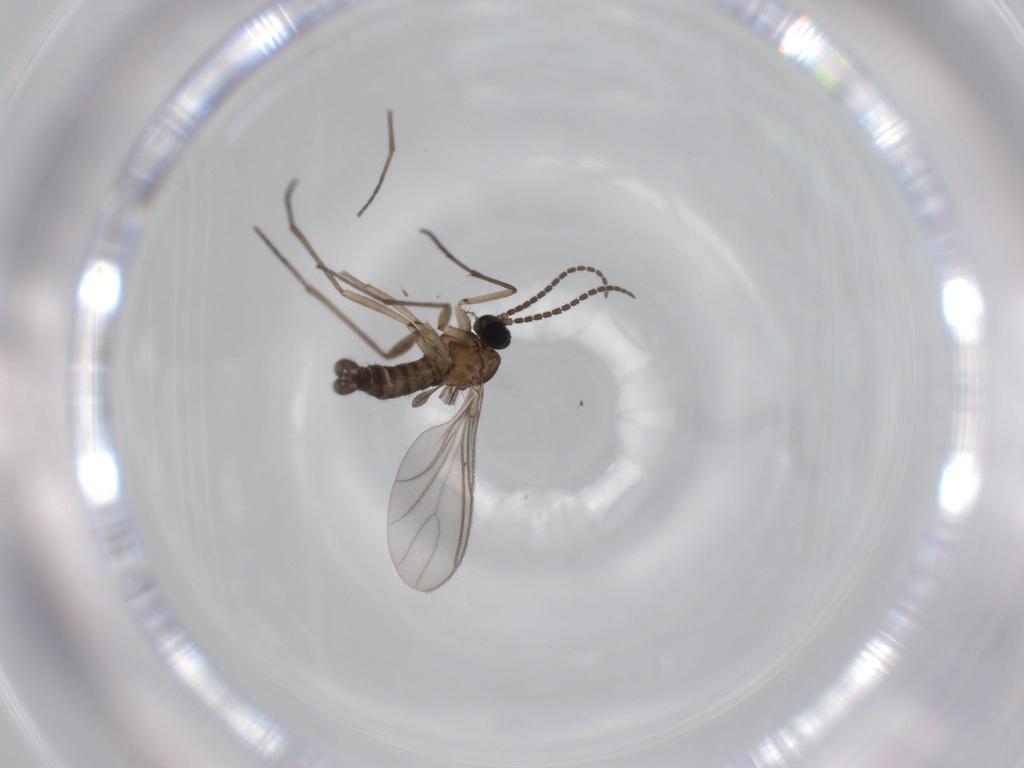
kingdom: Animalia
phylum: Arthropoda
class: Insecta
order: Diptera
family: Sciaridae
